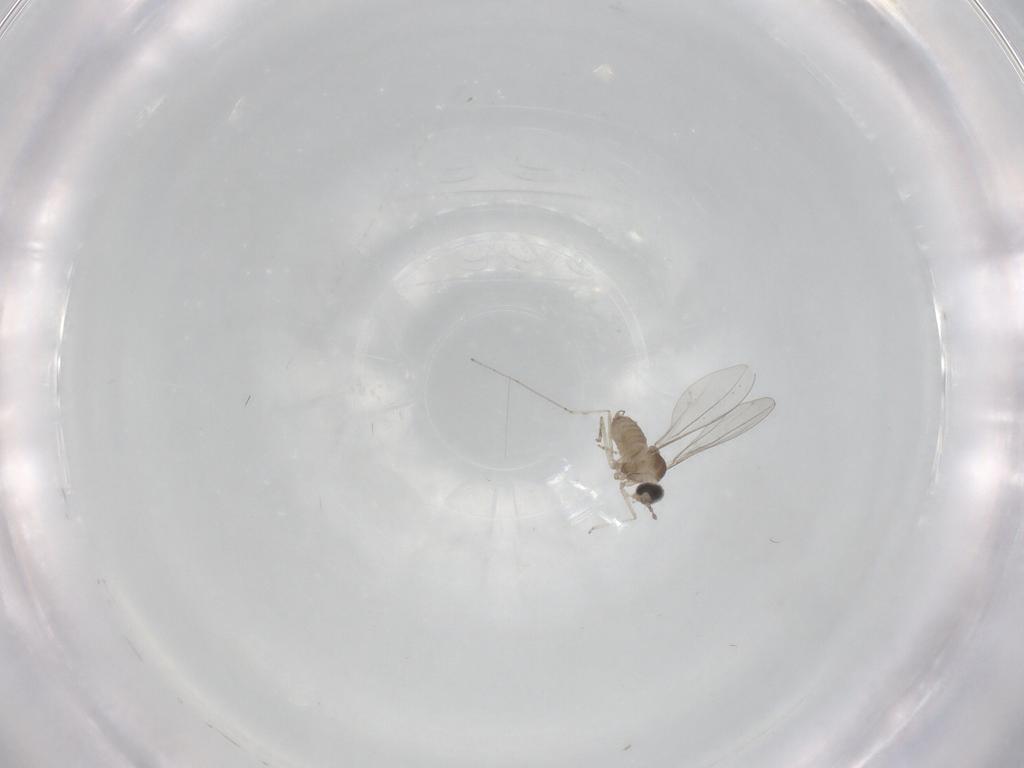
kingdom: Animalia
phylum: Arthropoda
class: Insecta
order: Diptera
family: Cecidomyiidae
